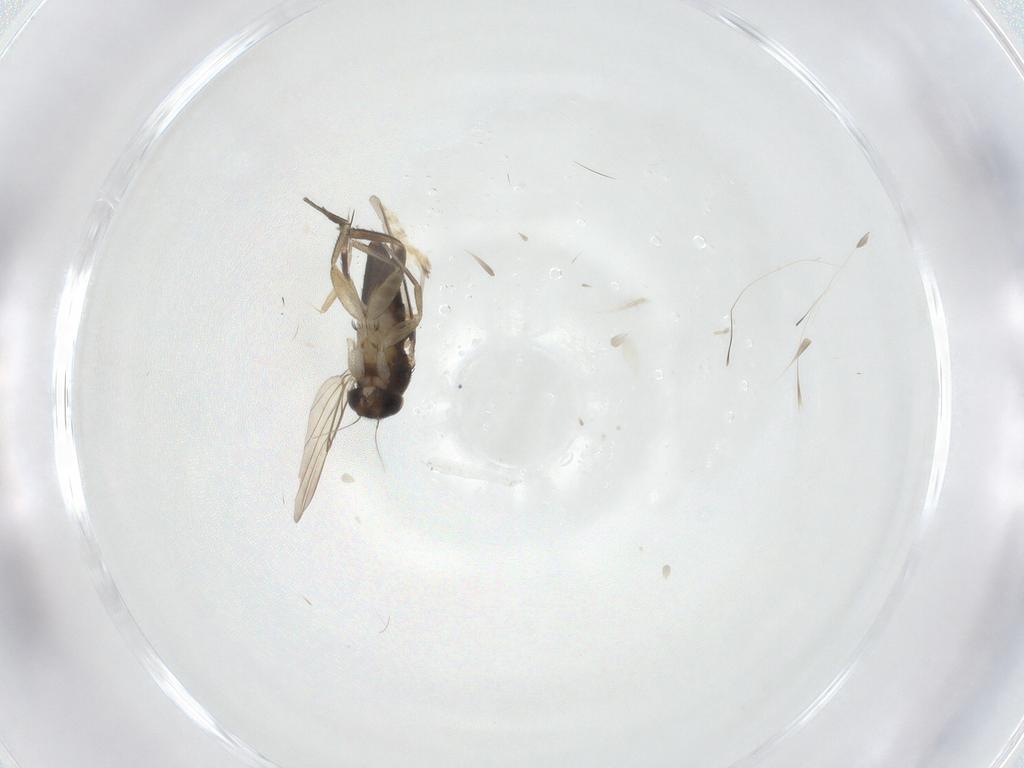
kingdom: Animalia
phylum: Arthropoda
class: Insecta
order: Diptera
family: Phoridae
